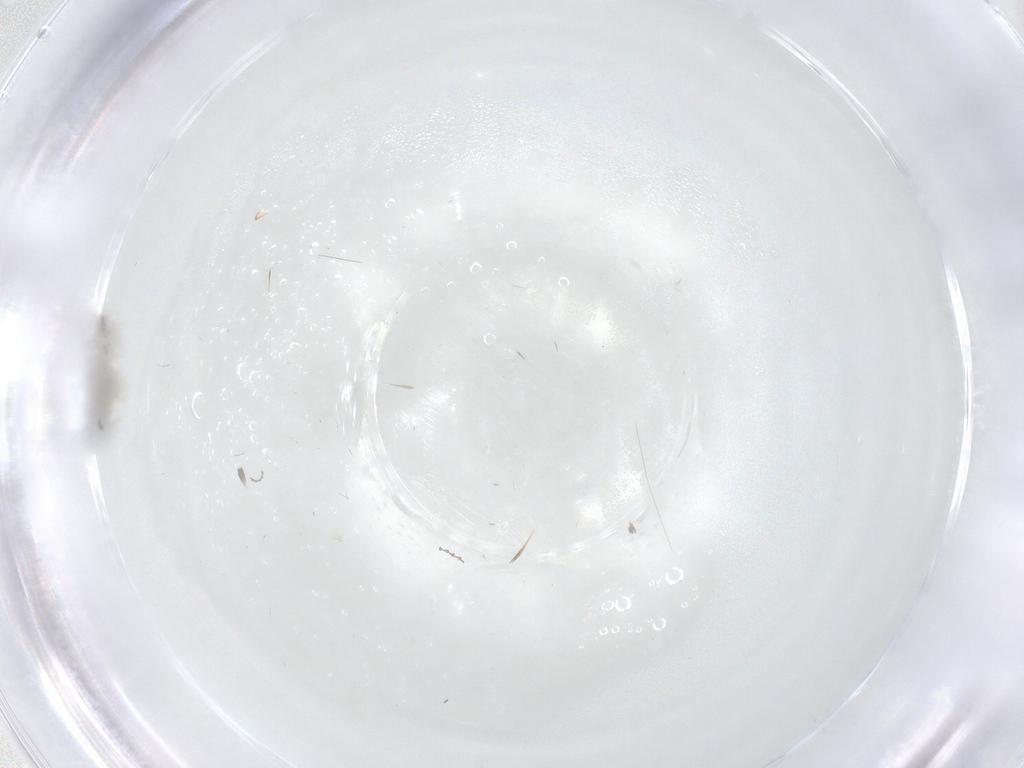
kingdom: Animalia
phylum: Arthropoda
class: Insecta
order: Diptera
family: Cecidomyiidae
